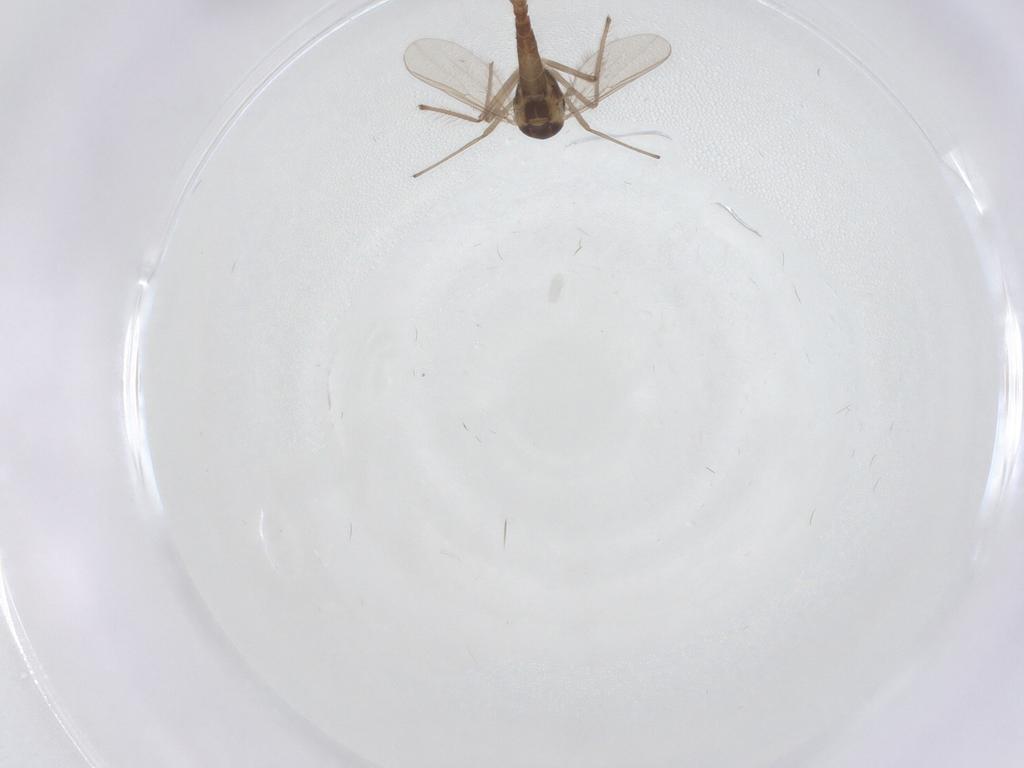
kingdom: Animalia
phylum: Arthropoda
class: Insecta
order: Diptera
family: Chironomidae
